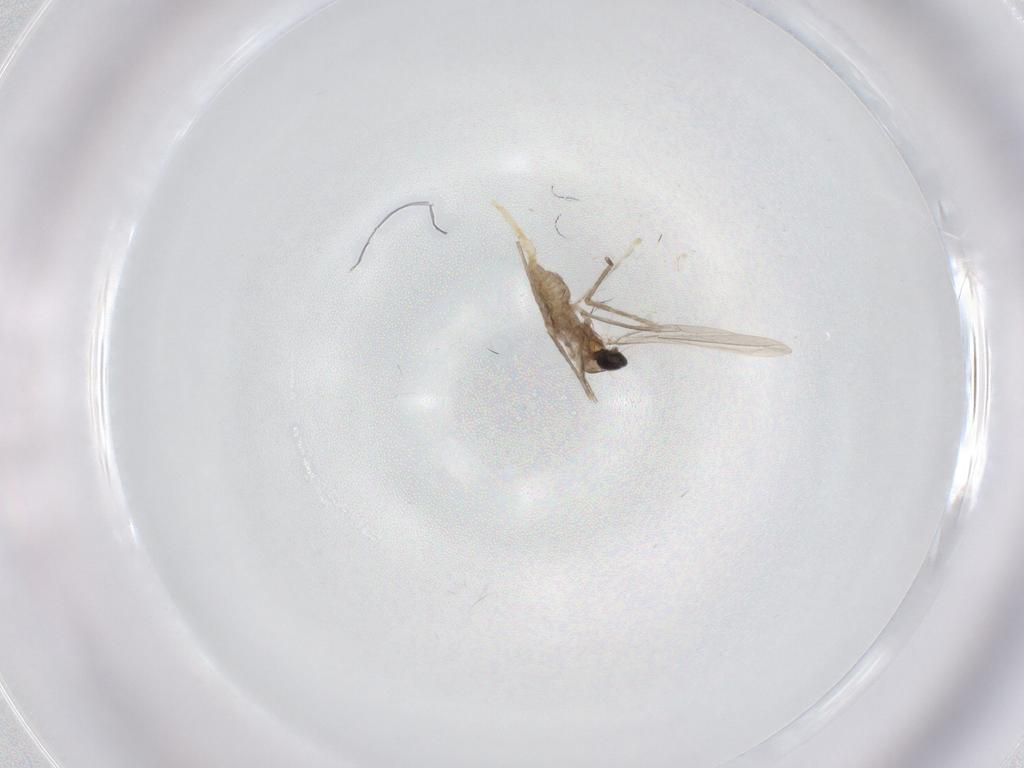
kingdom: Animalia
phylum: Arthropoda
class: Insecta
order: Diptera
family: Cecidomyiidae
